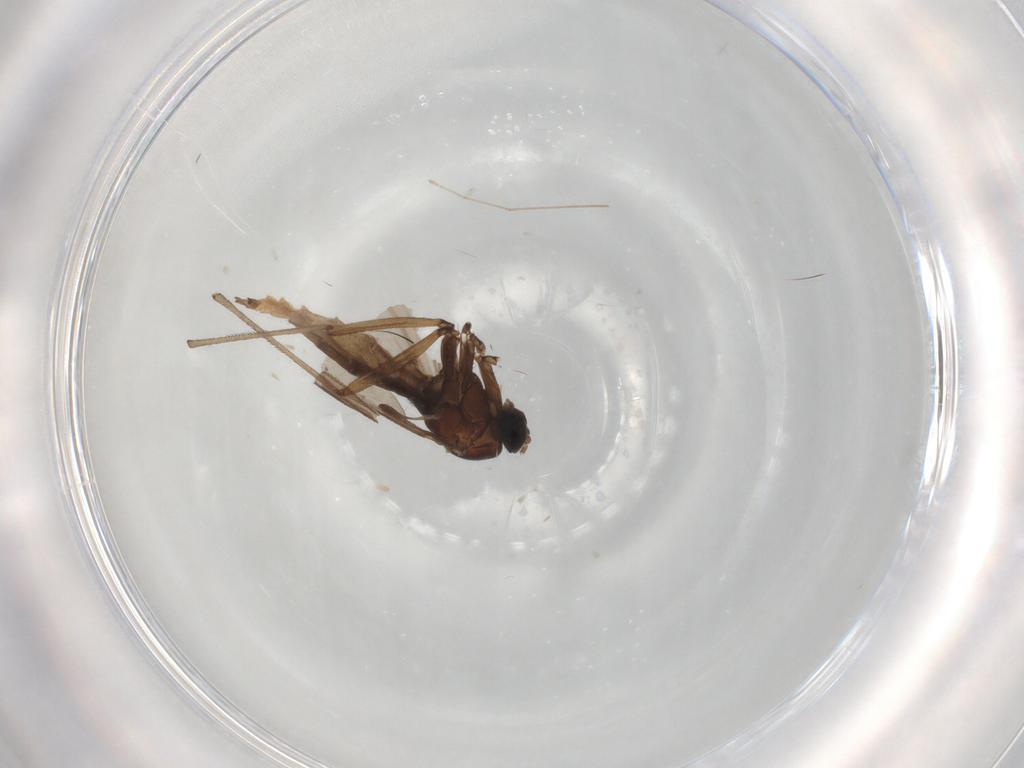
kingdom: Animalia
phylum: Arthropoda
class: Insecta
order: Diptera
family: Sciaridae
